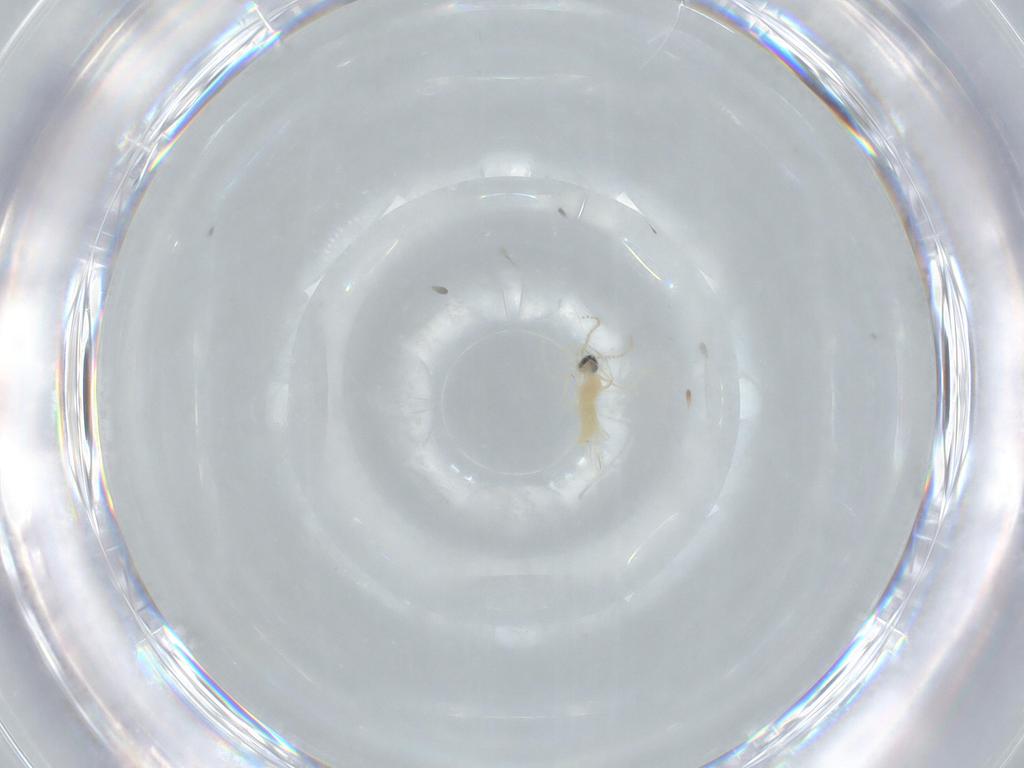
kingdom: Animalia
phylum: Arthropoda
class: Insecta
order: Diptera
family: Cecidomyiidae
